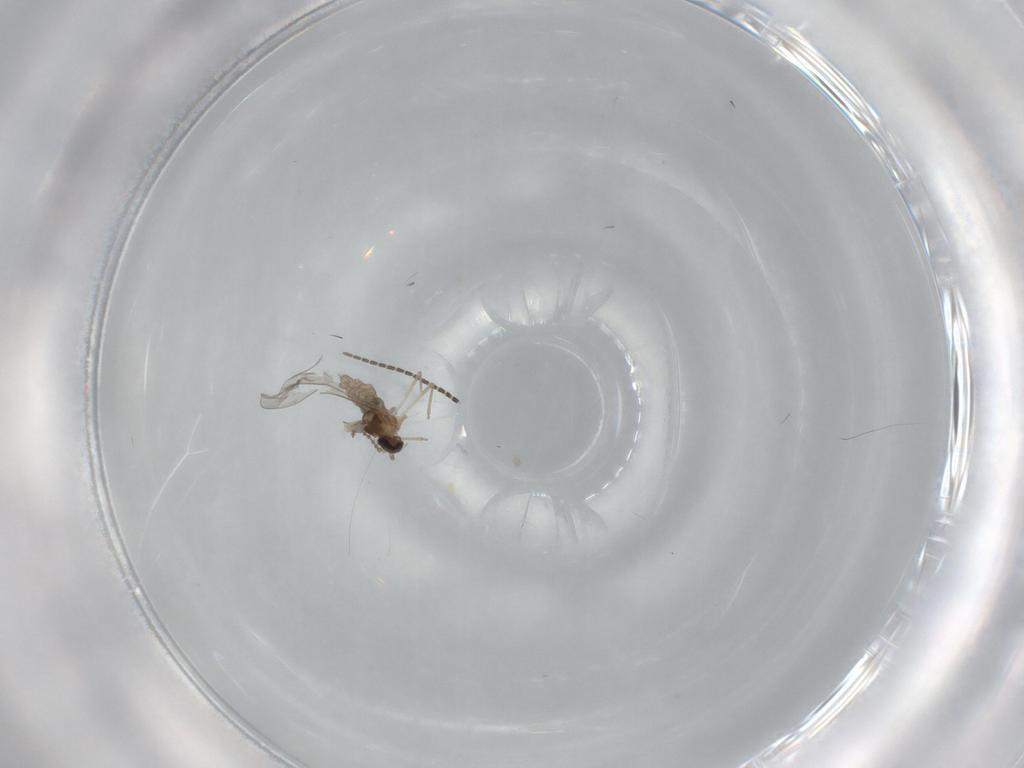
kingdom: Animalia
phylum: Arthropoda
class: Insecta
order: Diptera
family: Cecidomyiidae
